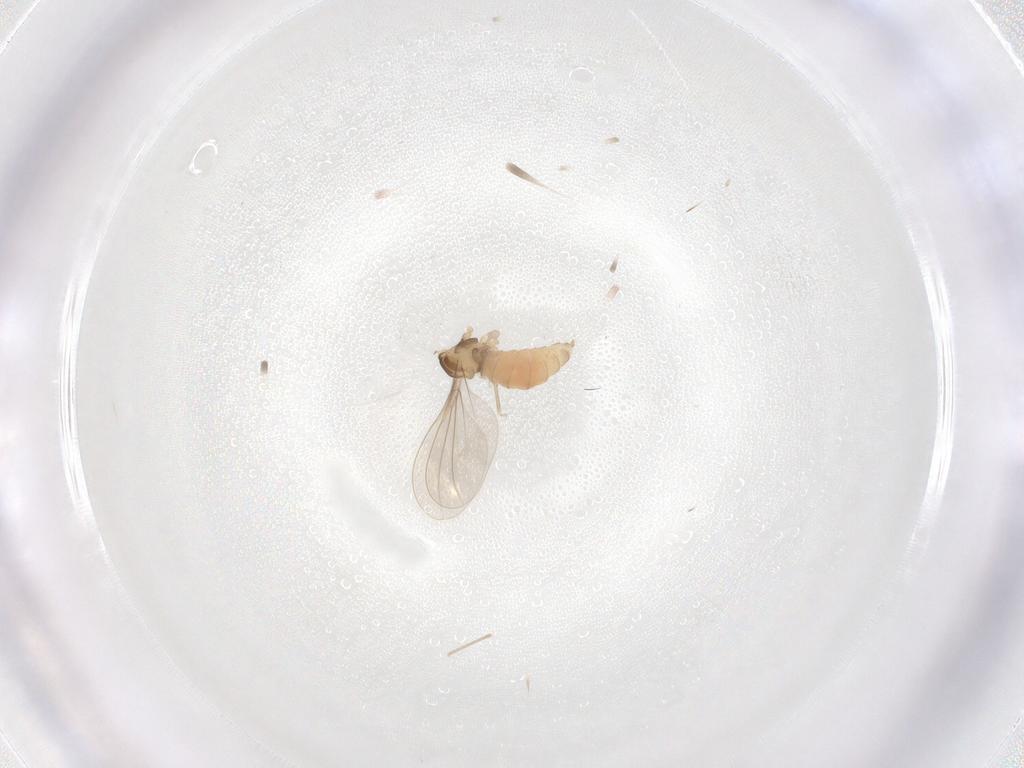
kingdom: Animalia
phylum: Arthropoda
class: Insecta
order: Diptera
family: Cecidomyiidae
